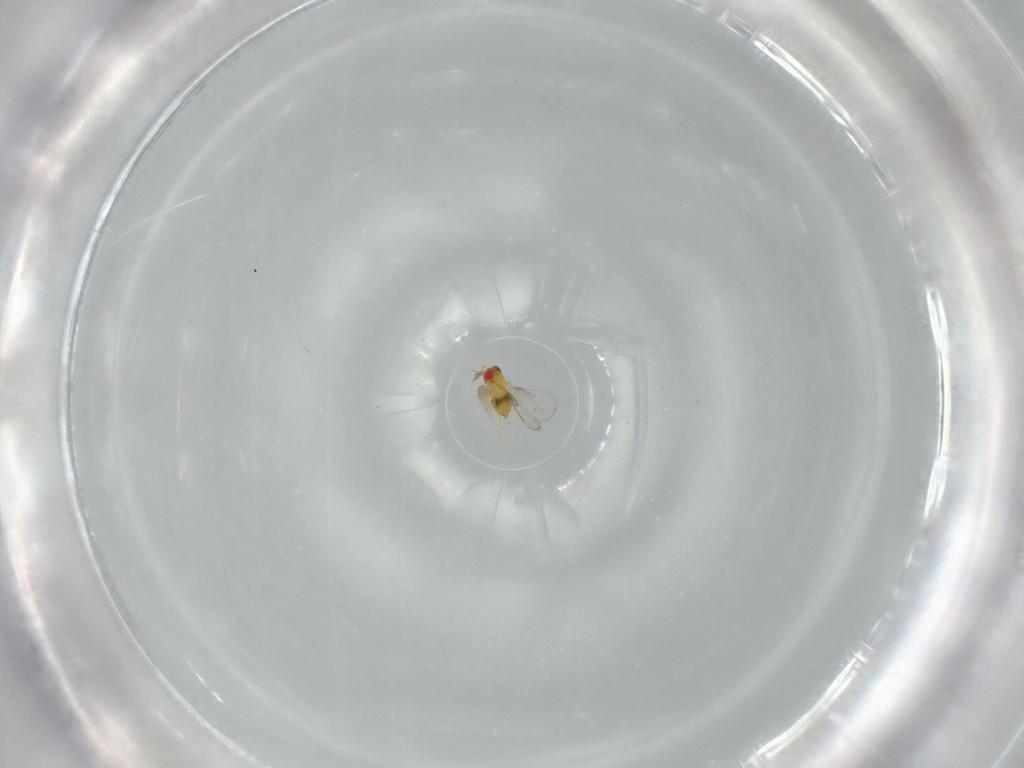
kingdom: Animalia
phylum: Arthropoda
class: Insecta
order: Hymenoptera
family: Trichogrammatidae
